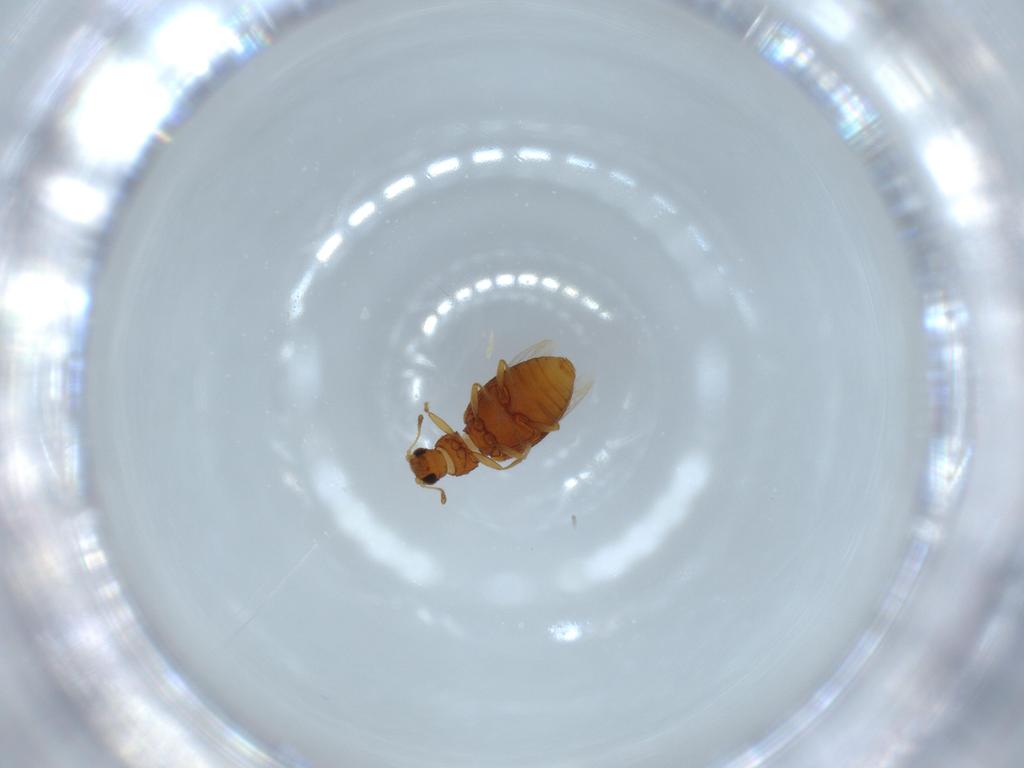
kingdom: Animalia
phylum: Arthropoda
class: Insecta
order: Coleoptera
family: Latridiidae
